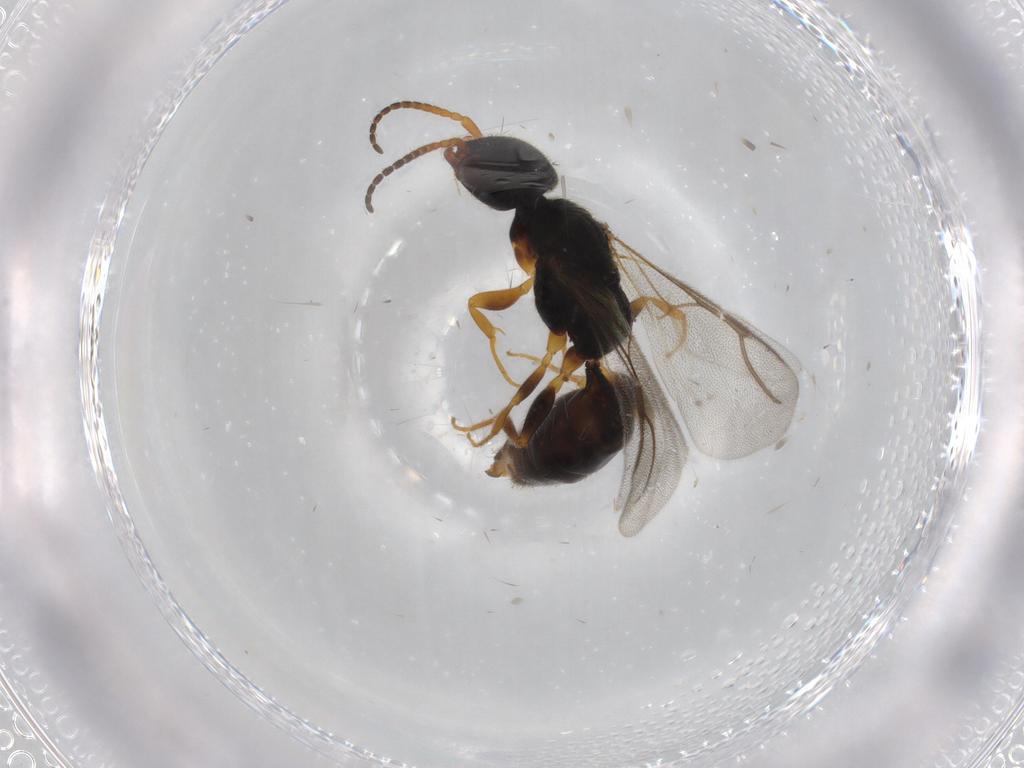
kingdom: Animalia
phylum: Arthropoda
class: Insecta
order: Hymenoptera
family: Bethylidae
